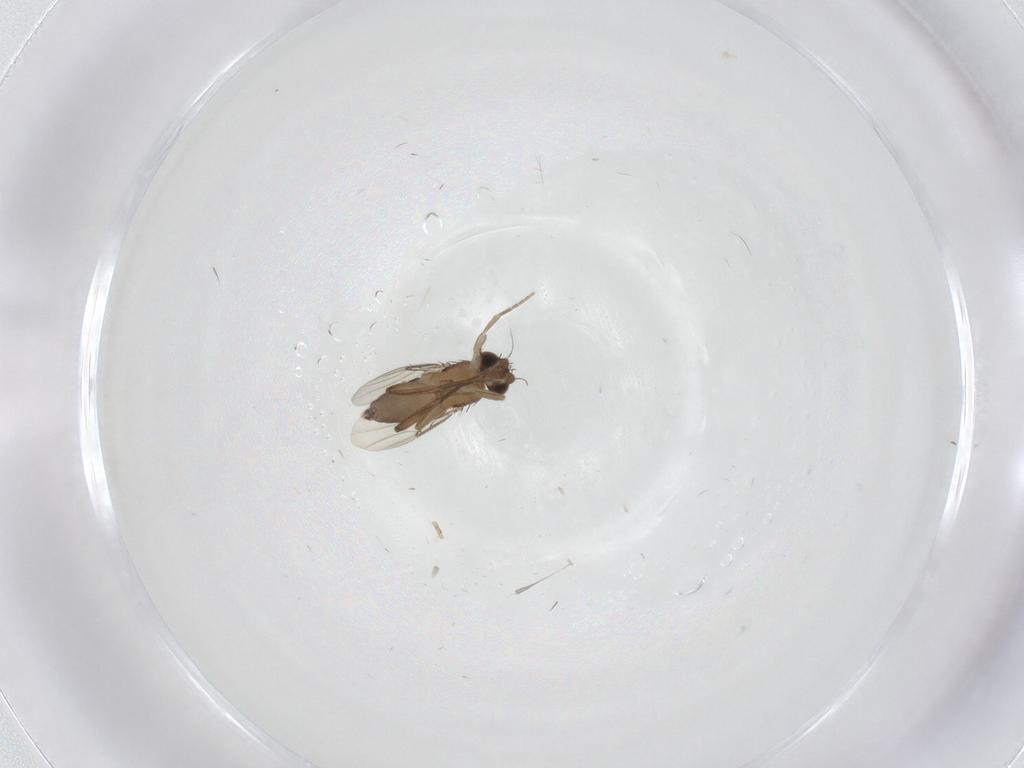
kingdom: Animalia
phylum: Arthropoda
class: Insecta
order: Diptera
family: Phoridae
